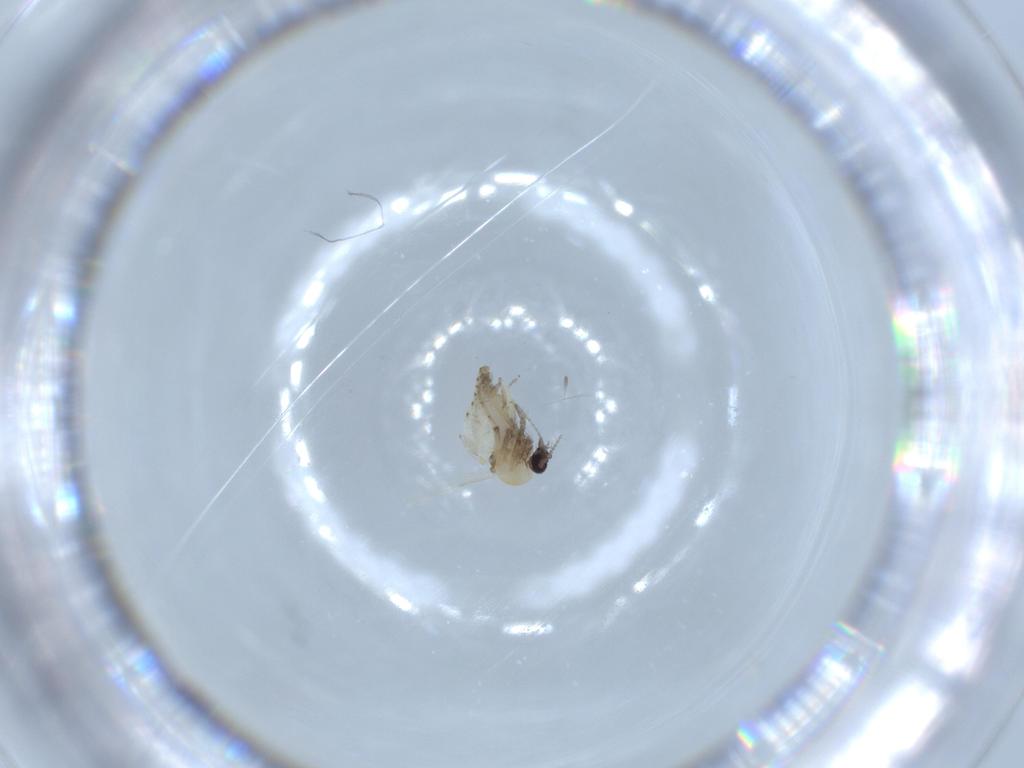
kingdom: Animalia
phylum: Arthropoda
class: Insecta
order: Diptera
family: Ceratopogonidae
